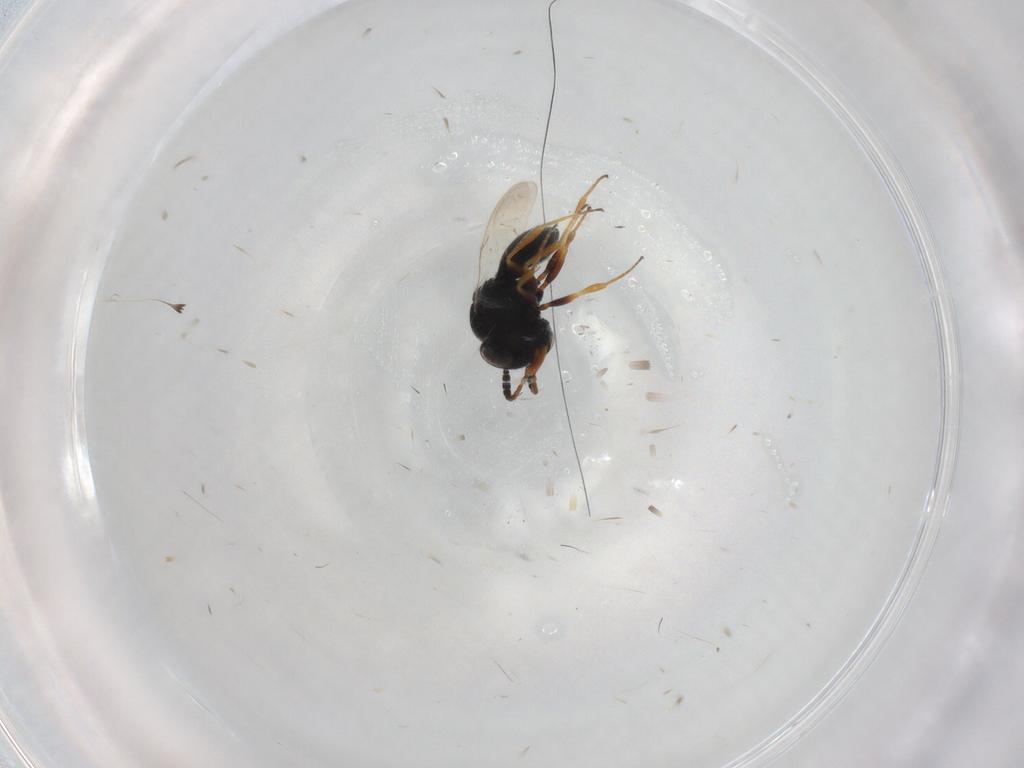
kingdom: Animalia
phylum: Arthropoda
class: Insecta
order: Hymenoptera
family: Scelionidae
